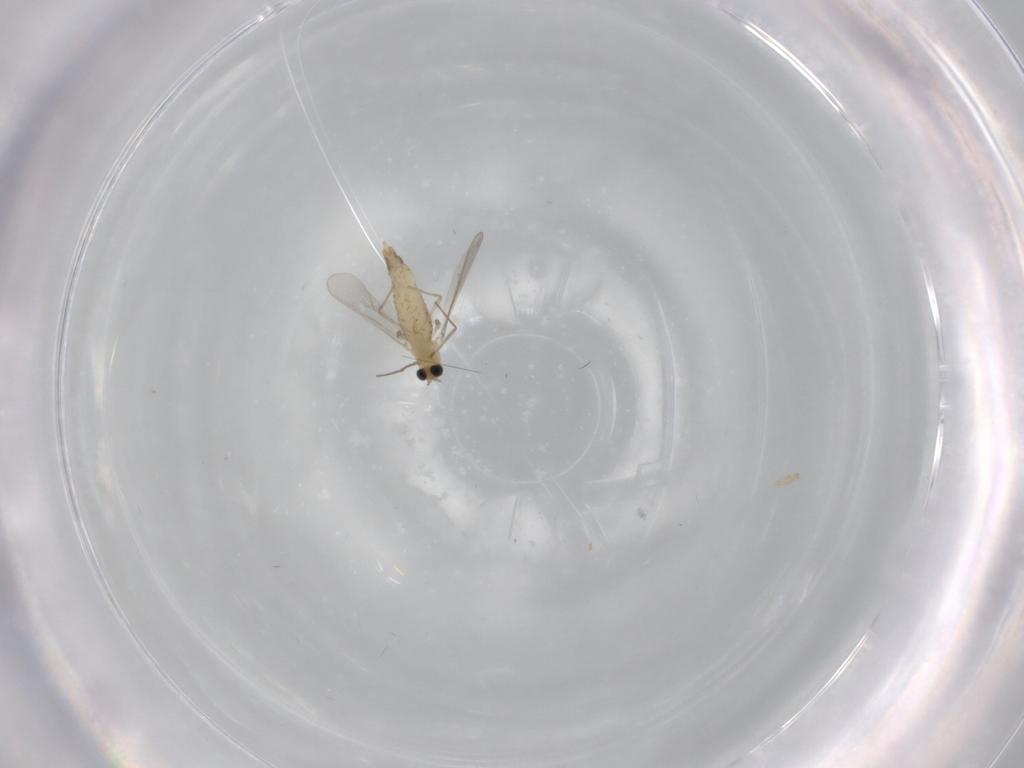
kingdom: Animalia
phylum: Arthropoda
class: Insecta
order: Diptera
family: Chironomidae
